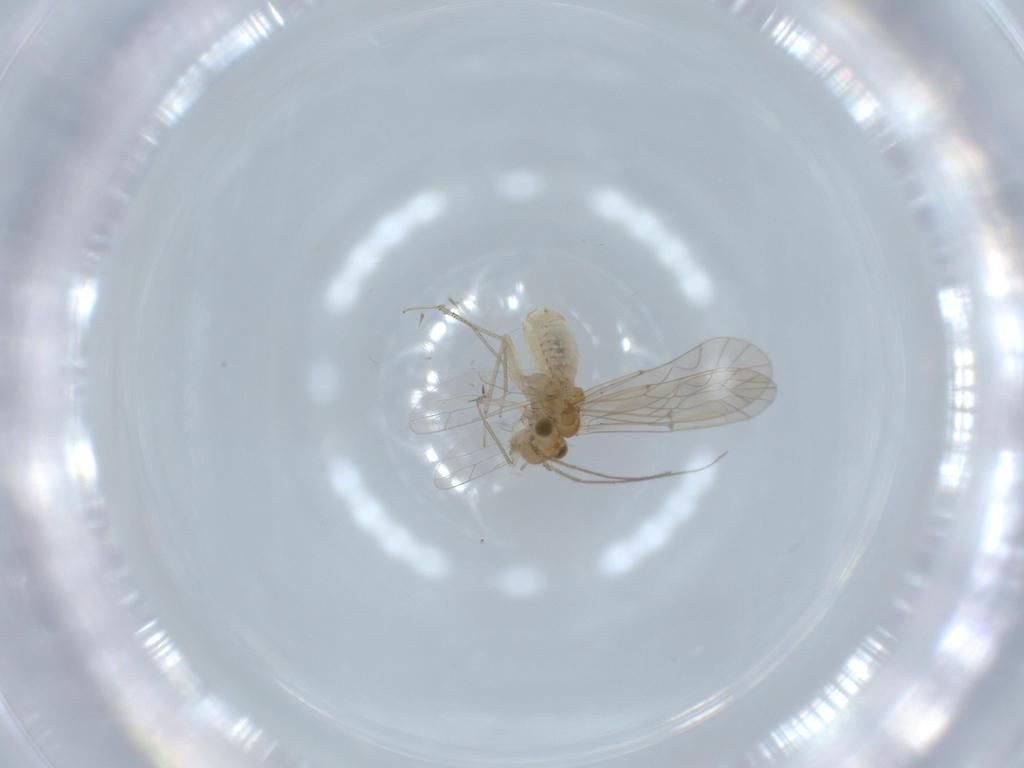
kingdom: Animalia
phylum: Arthropoda
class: Insecta
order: Psocodea
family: Lachesillidae
